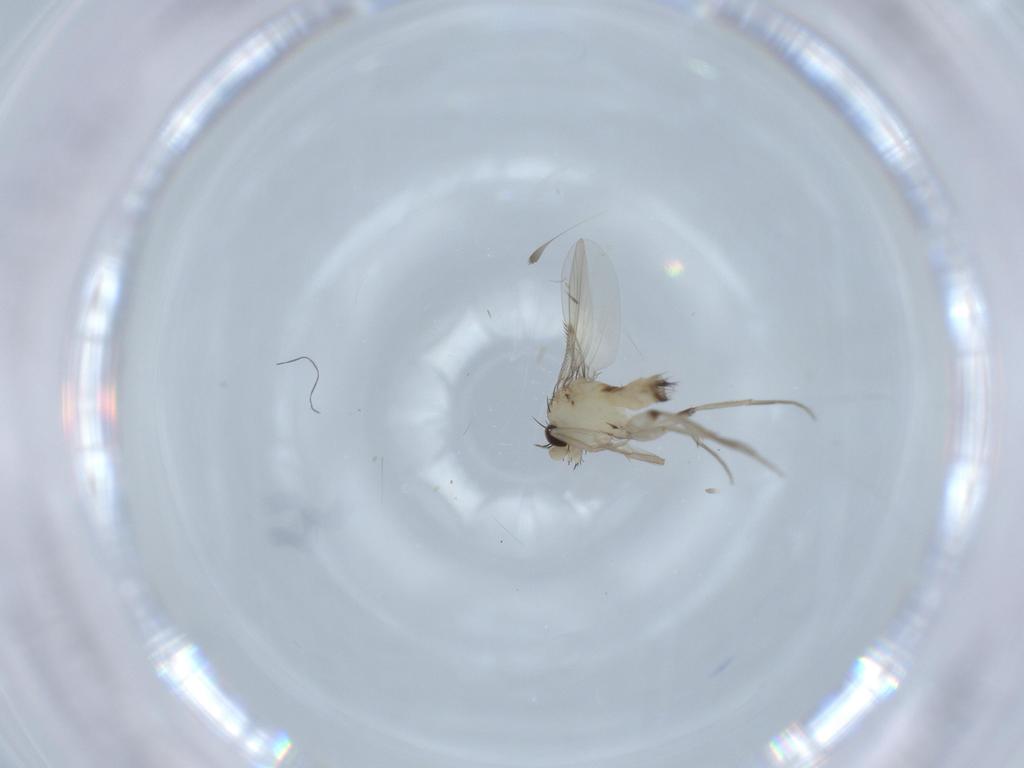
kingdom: Animalia
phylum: Arthropoda
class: Insecta
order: Diptera
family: Phoridae
